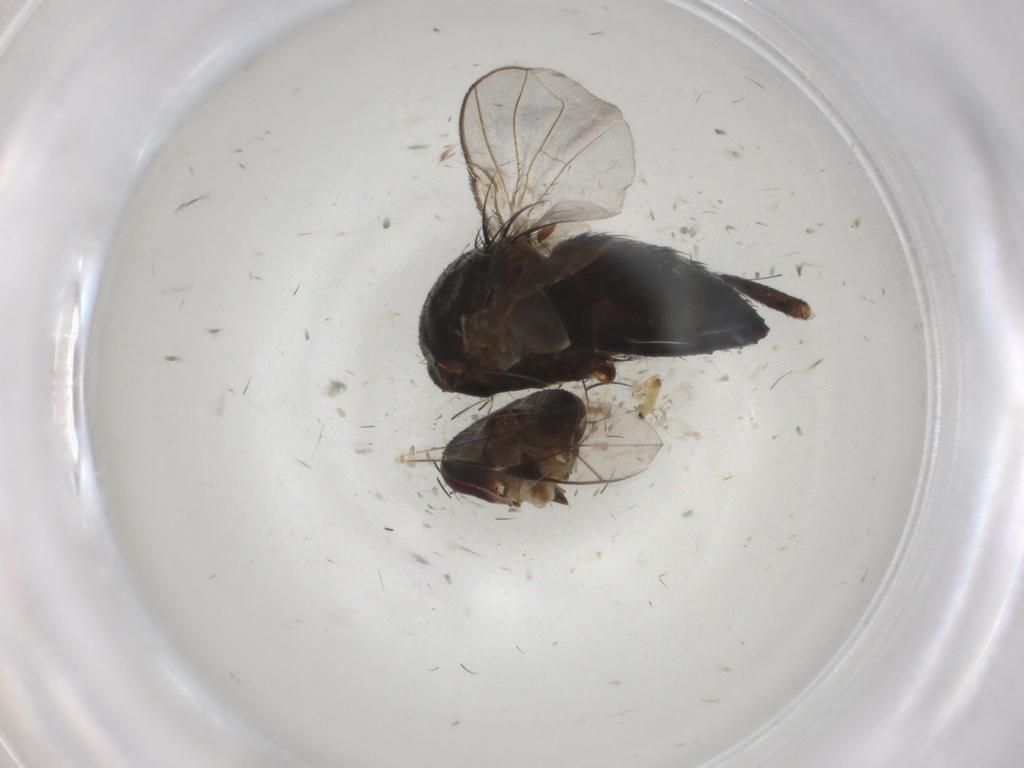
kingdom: Animalia
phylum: Arthropoda
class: Insecta
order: Diptera
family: Tachinidae
